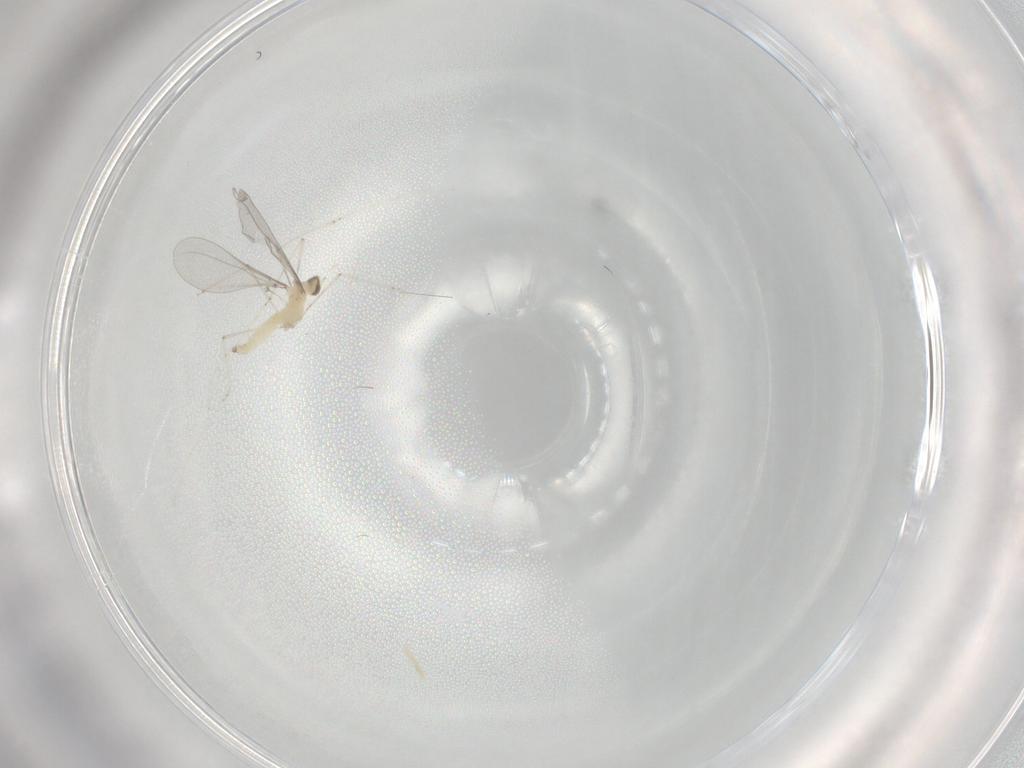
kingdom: Animalia
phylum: Arthropoda
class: Insecta
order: Diptera
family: Cecidomyiidae
